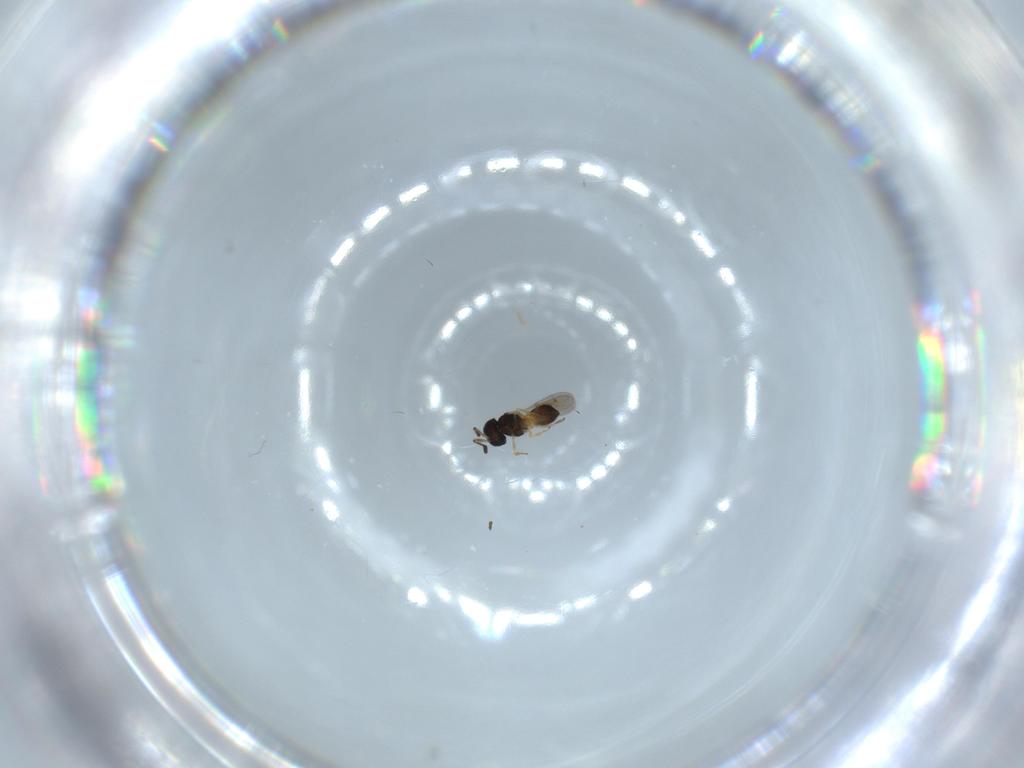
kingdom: Animalia
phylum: Arthropoda
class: Insecta
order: Hymenoptera
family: Scelionidae
